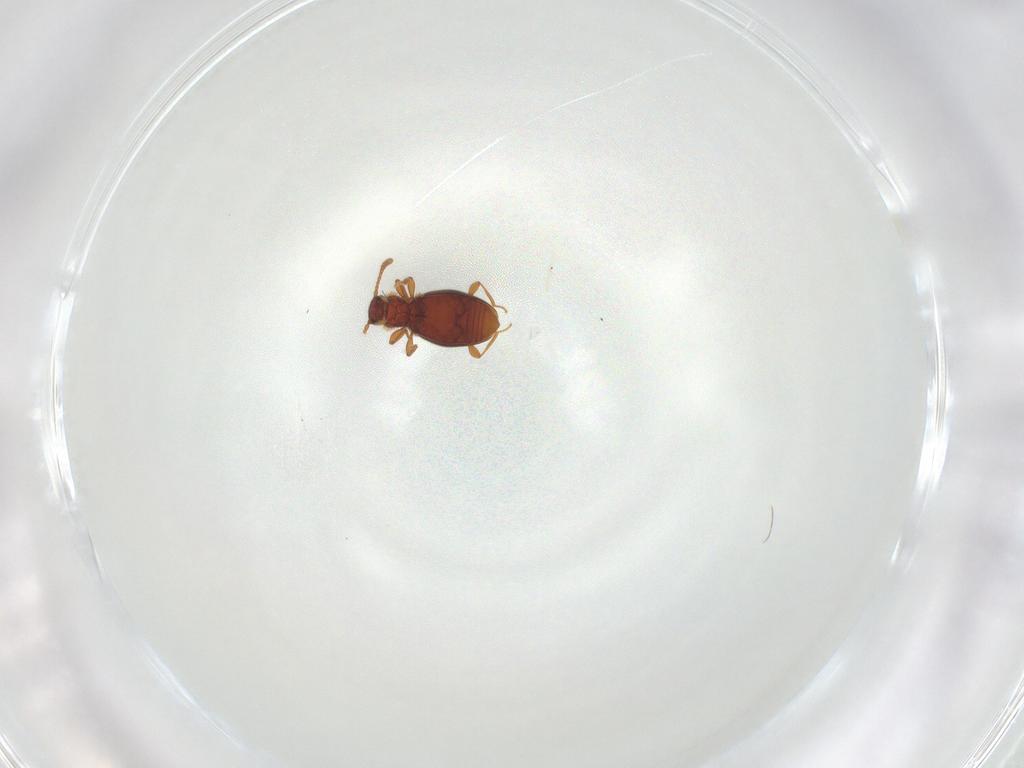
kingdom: Animalia
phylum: Arthropoda
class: Insecta
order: Coleoptera
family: Staphylinidae
